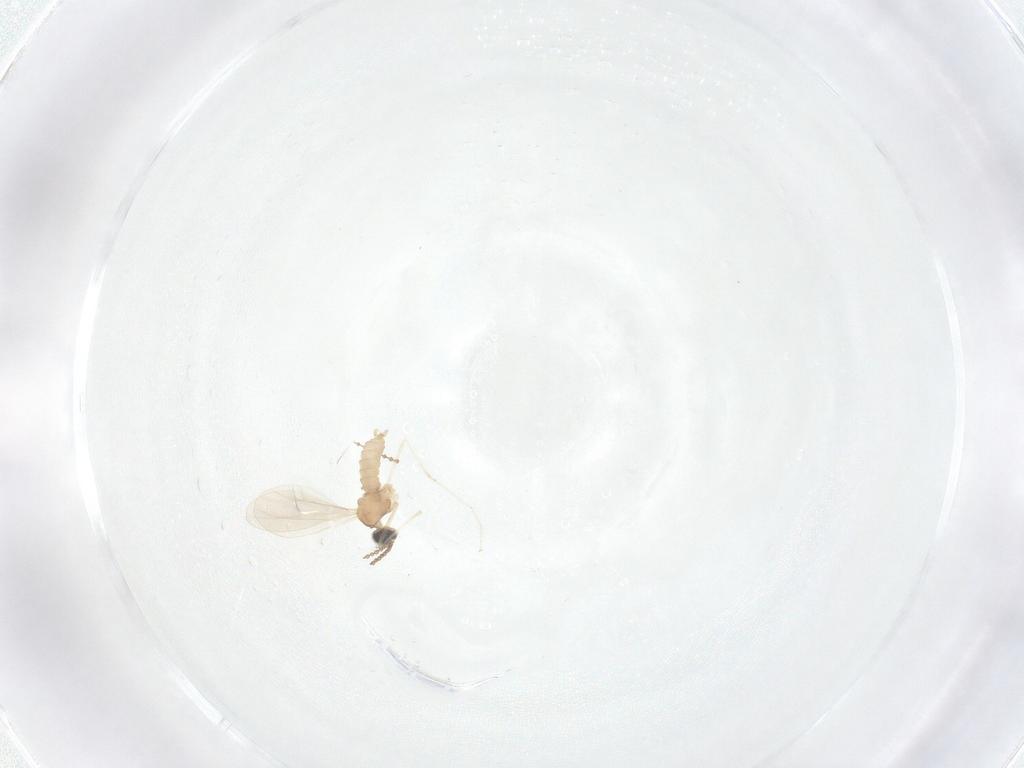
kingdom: Animalia
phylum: Arthropoda
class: Insecta
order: Diptera
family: Cecidomyiidae
